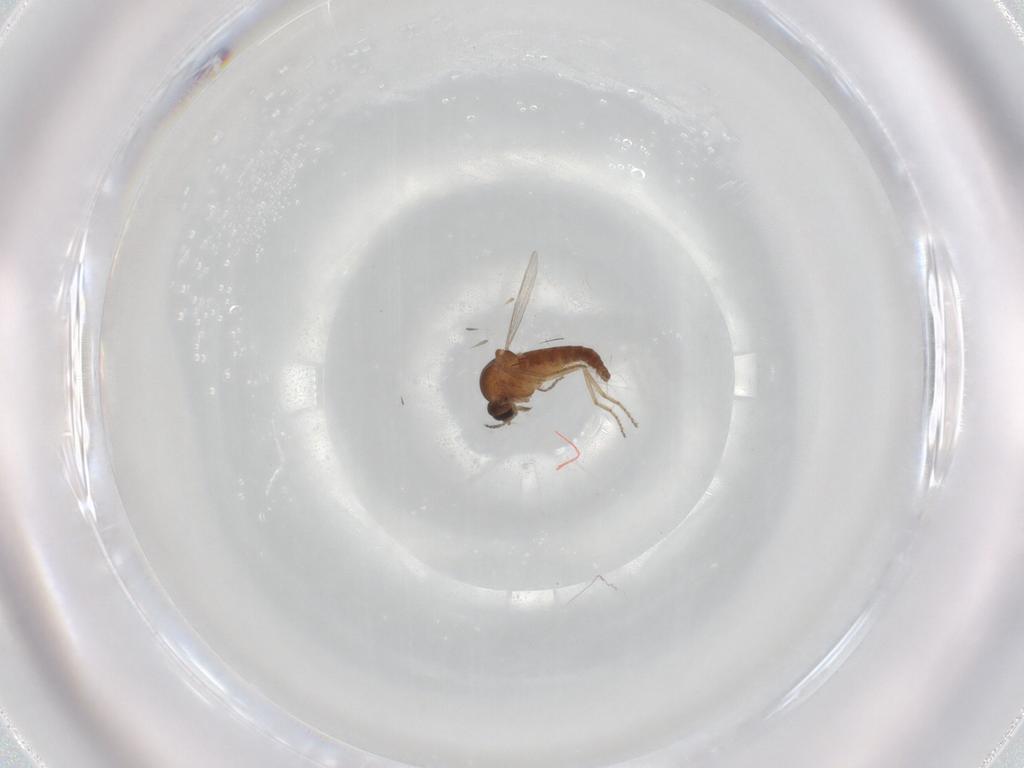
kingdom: Animalia
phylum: Arthropoda
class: Insecta
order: Diptera
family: Ceratopogonidae
